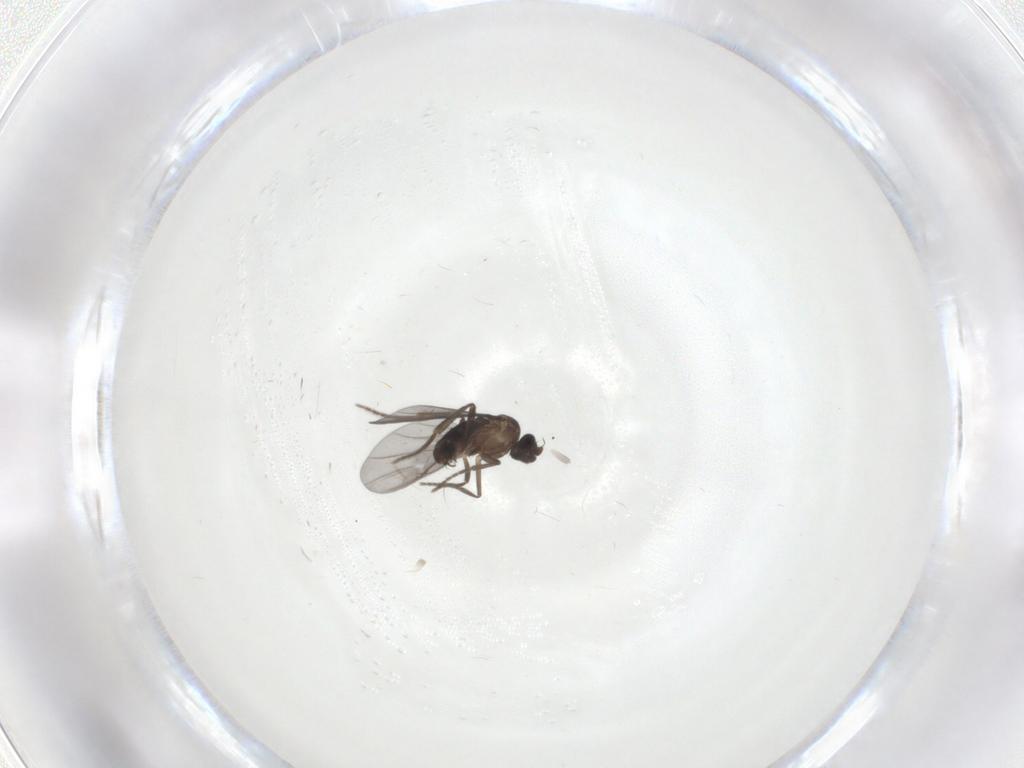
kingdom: Animalia
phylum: Arthropoda
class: Insecta
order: Diptera
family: Phoridae
